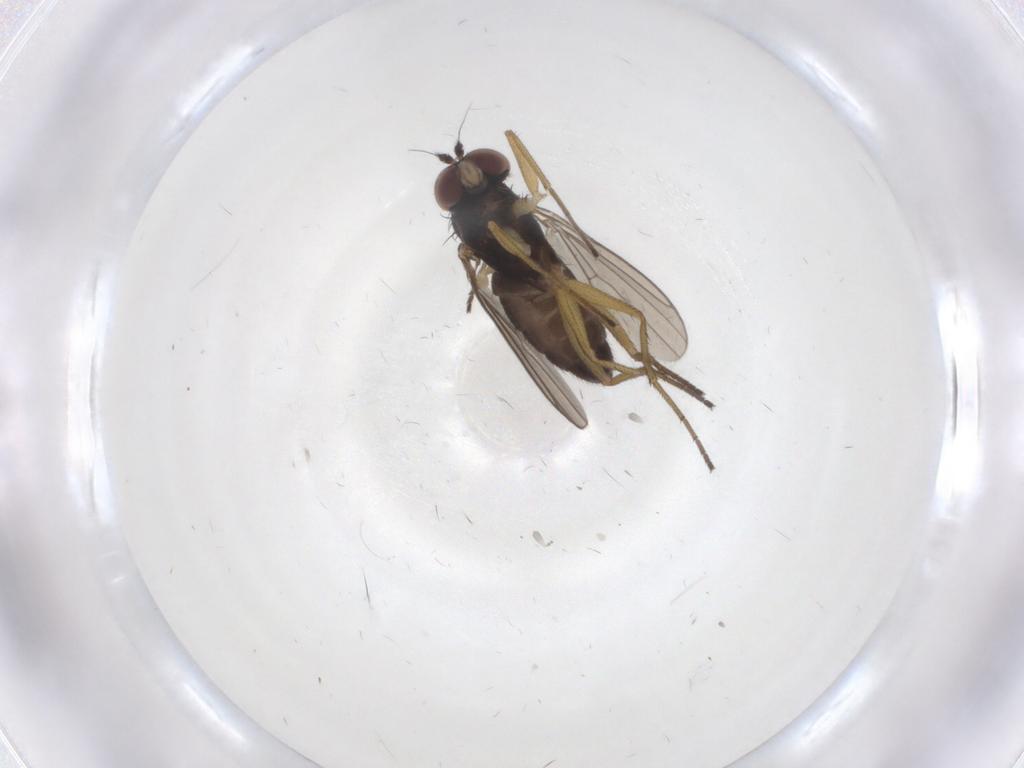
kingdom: Animalia
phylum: Arthropoda
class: Insecta
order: Diptera
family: Dolichopodidae
